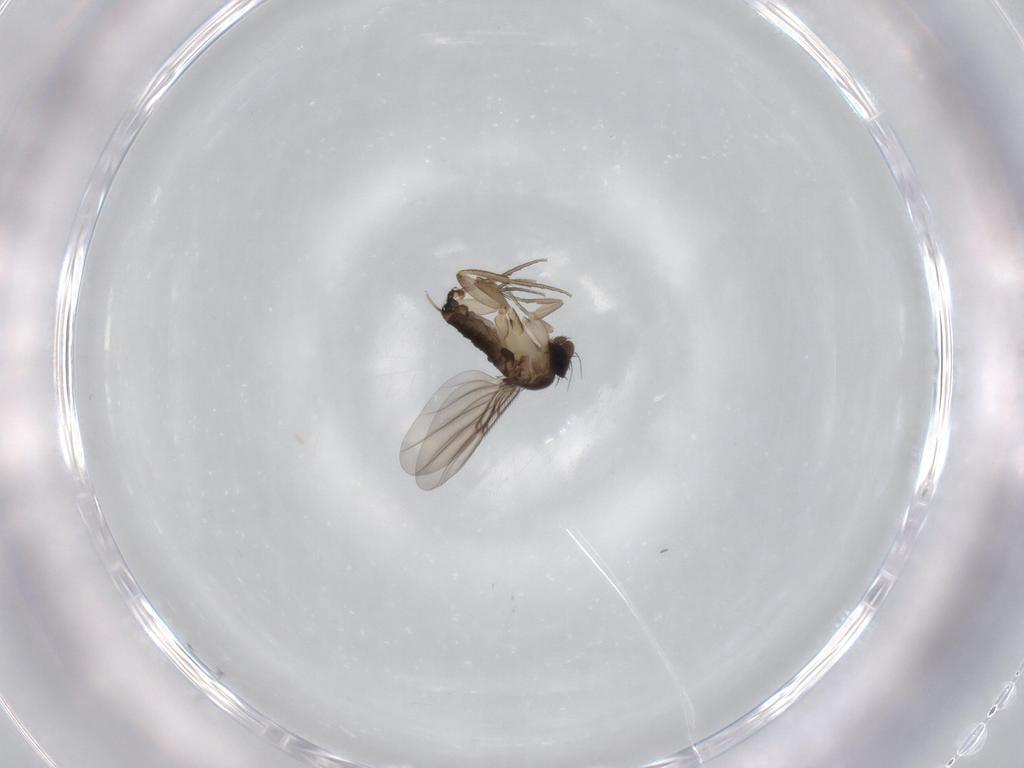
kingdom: Animalia
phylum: Arthropoda
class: Insecta
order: Diptera
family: Phoridae
